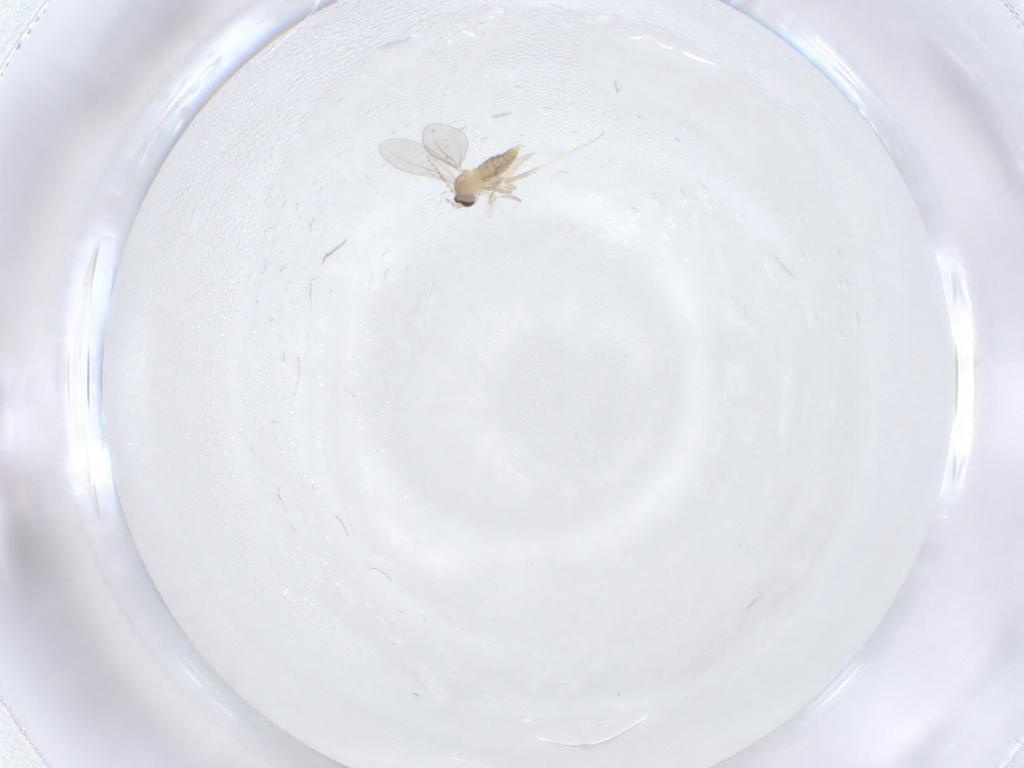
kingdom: Animalia
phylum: Arthropoda
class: Insecta
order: Diptera
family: Cecidomyiidae
